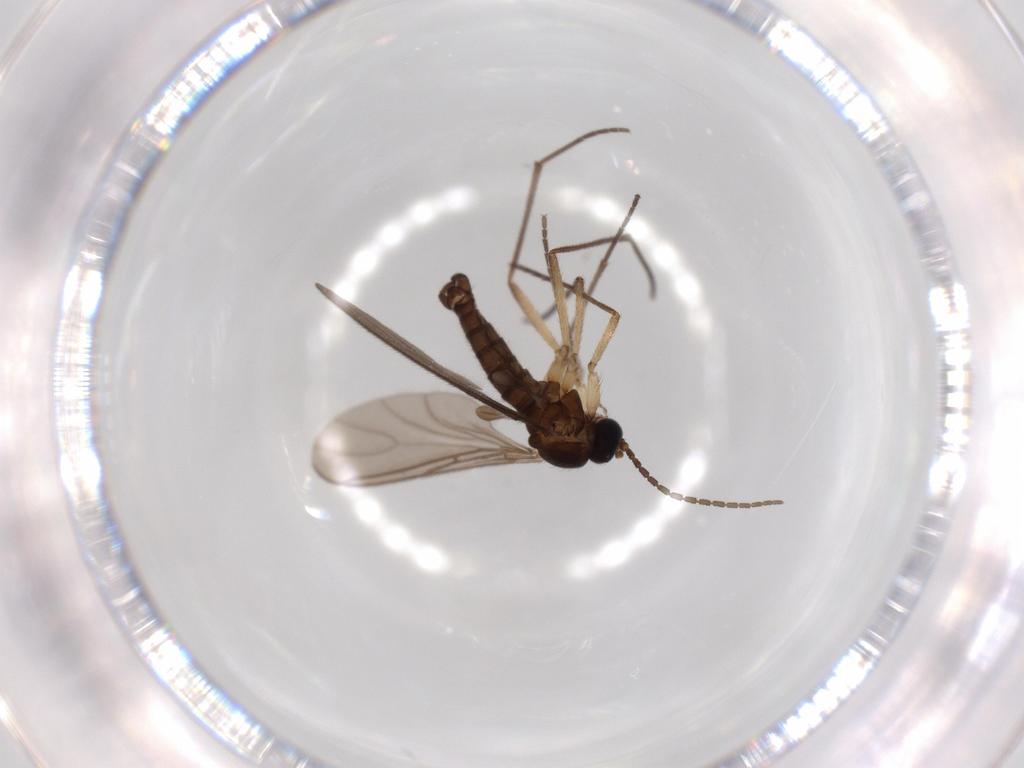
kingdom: Animalia
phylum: Arthropoda
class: Insecta
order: Diptera
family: Sciaridae
